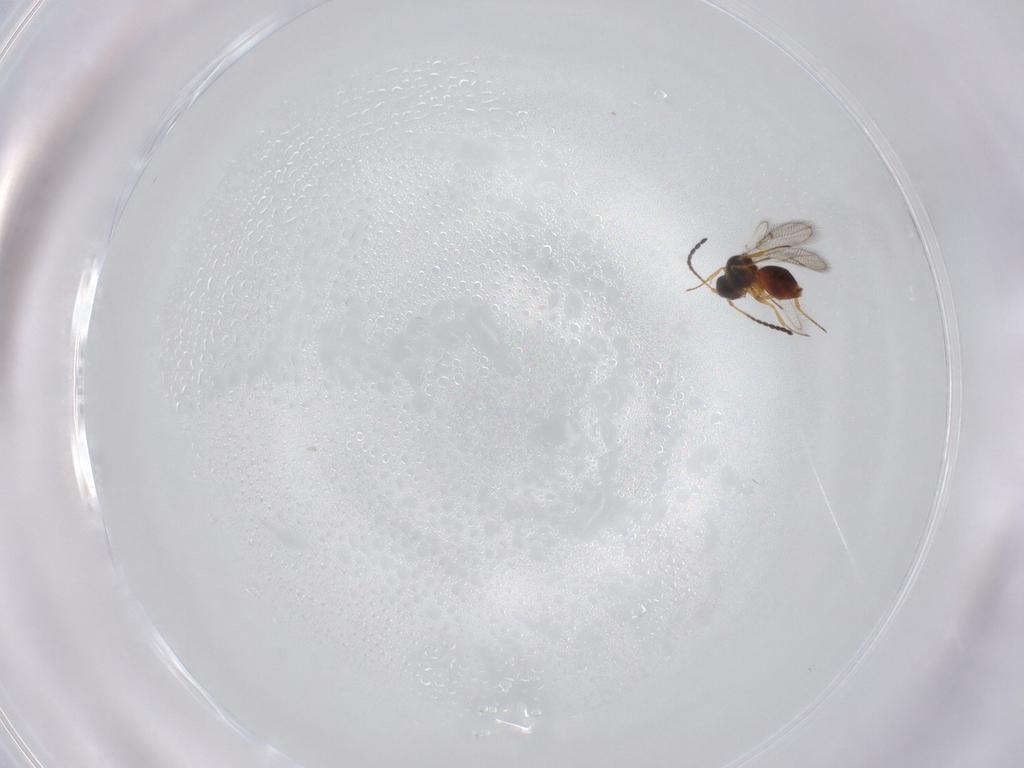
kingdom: Animalia
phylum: Arthropoda
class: Insecta
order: Hymenoptera
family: Figitidae
